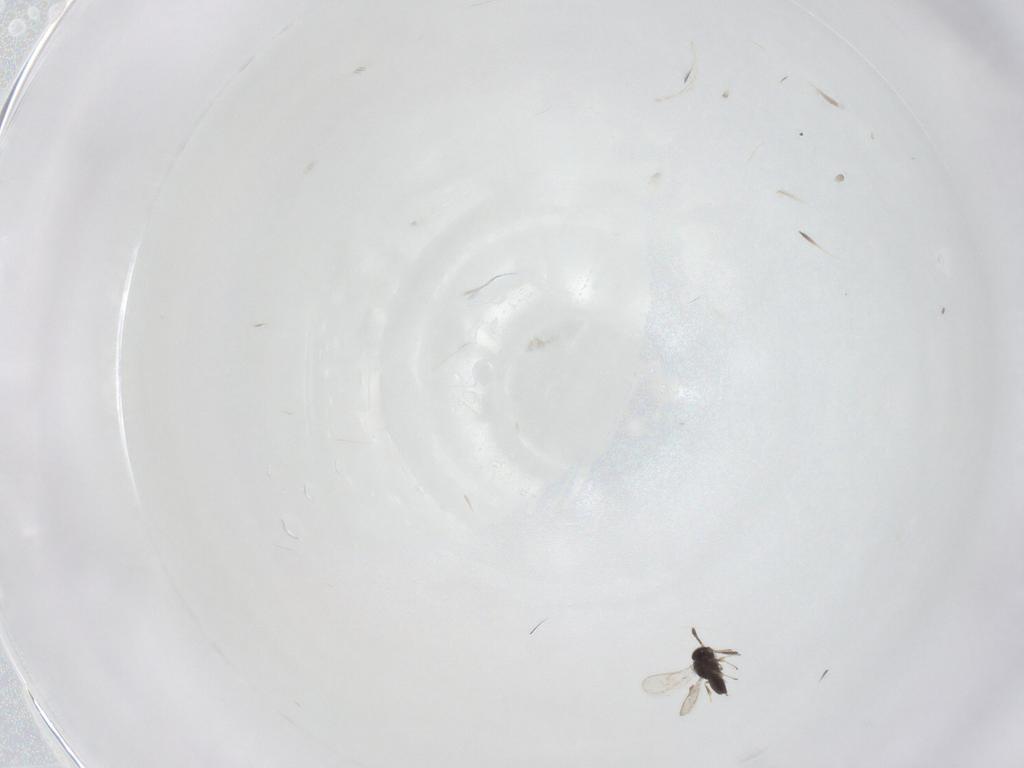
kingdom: Animalia
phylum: Arthropoda
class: Insecta
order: Hymenoptera
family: Scelionidae
